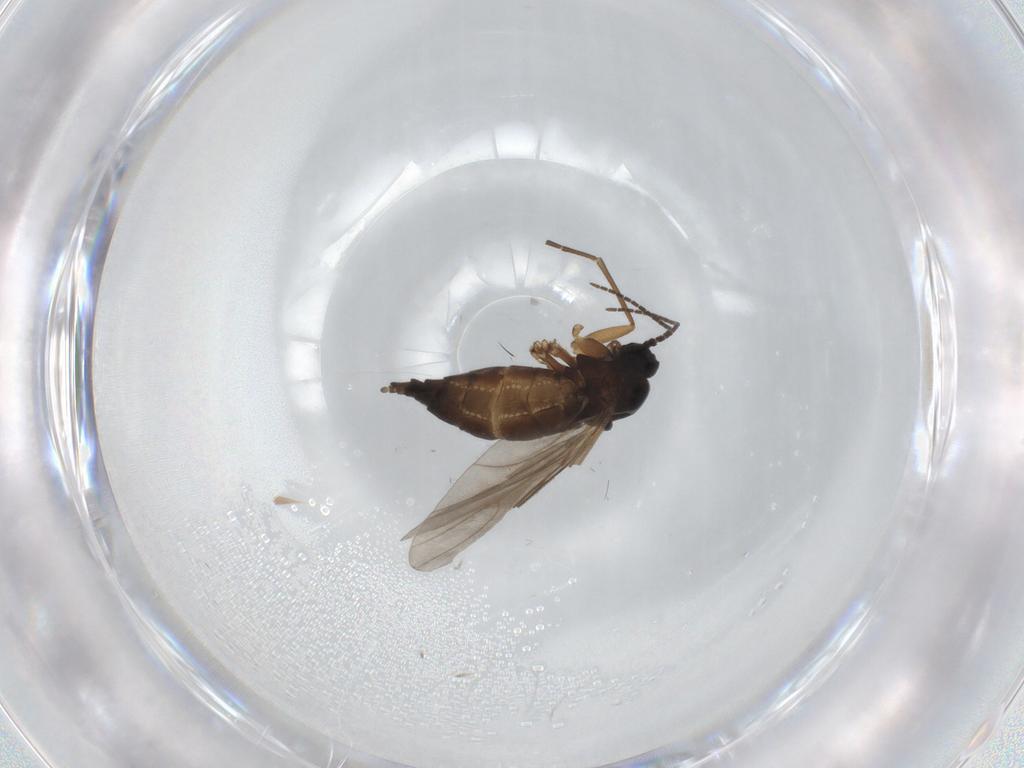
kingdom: Animalia
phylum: Arthropoda
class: Insecta
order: Diptera
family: Sciaridae
